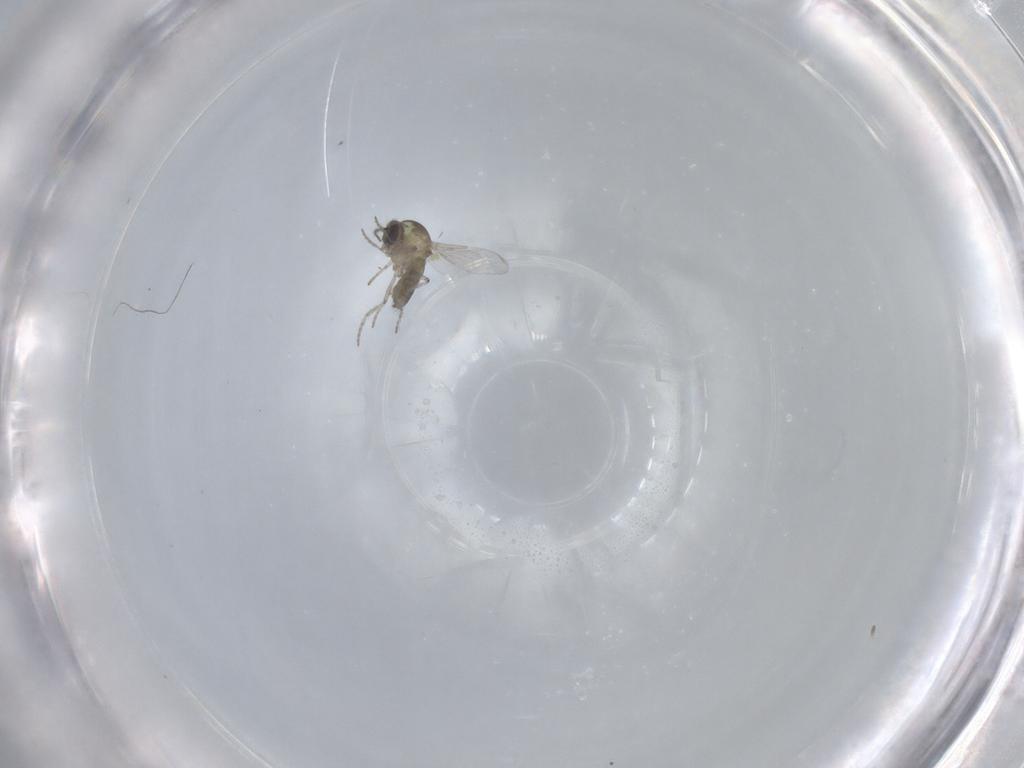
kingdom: Animalia
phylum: Arthropoda
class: Insecta
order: Diptera
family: Ceratopogonidae
